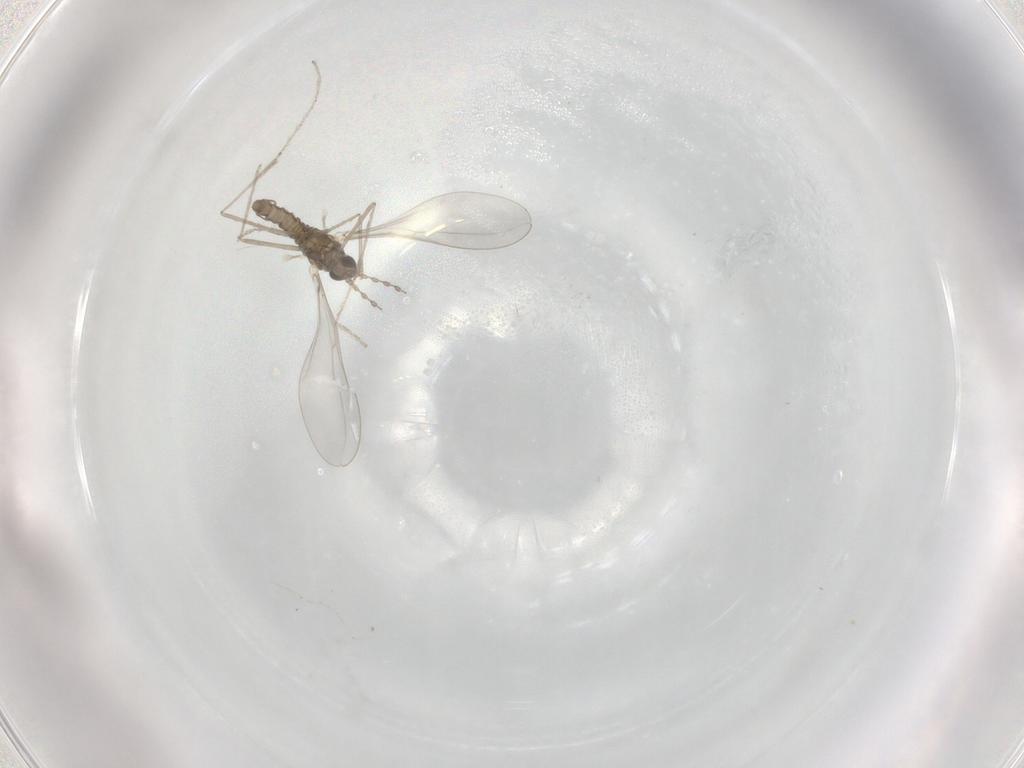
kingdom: Animalia
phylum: Arthropoda
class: Insecta
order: Diptera
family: Cecidomyiidae
